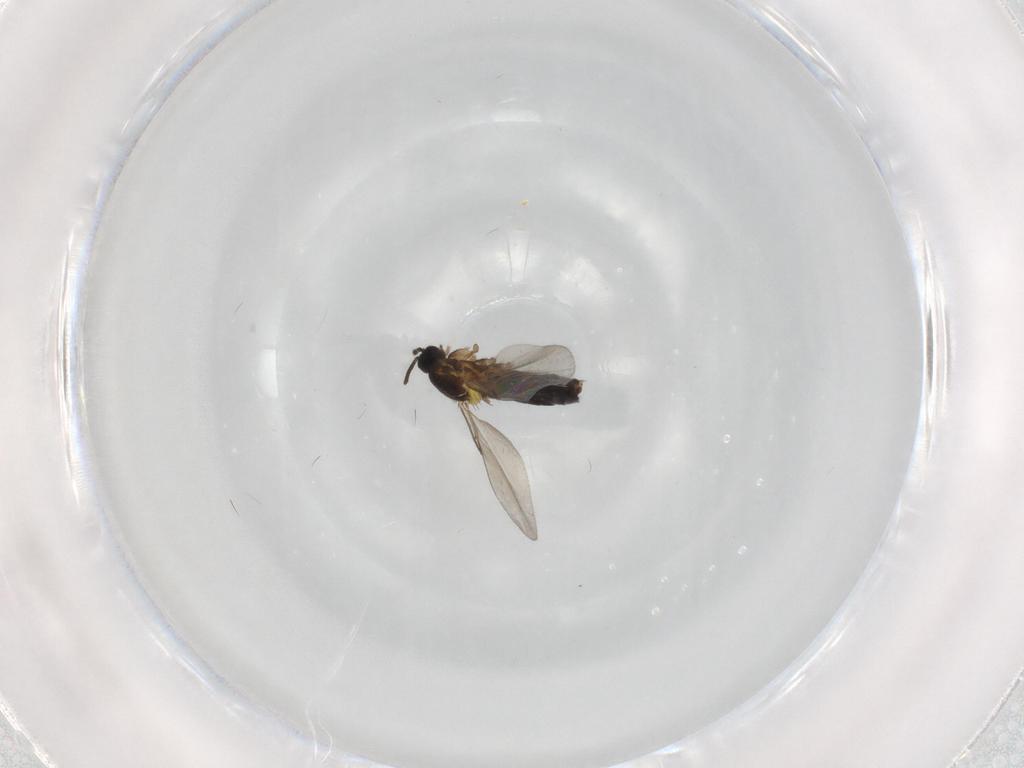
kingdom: Animalia
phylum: Arthropoda
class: Insecta
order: Diptera
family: Scatopsidae
